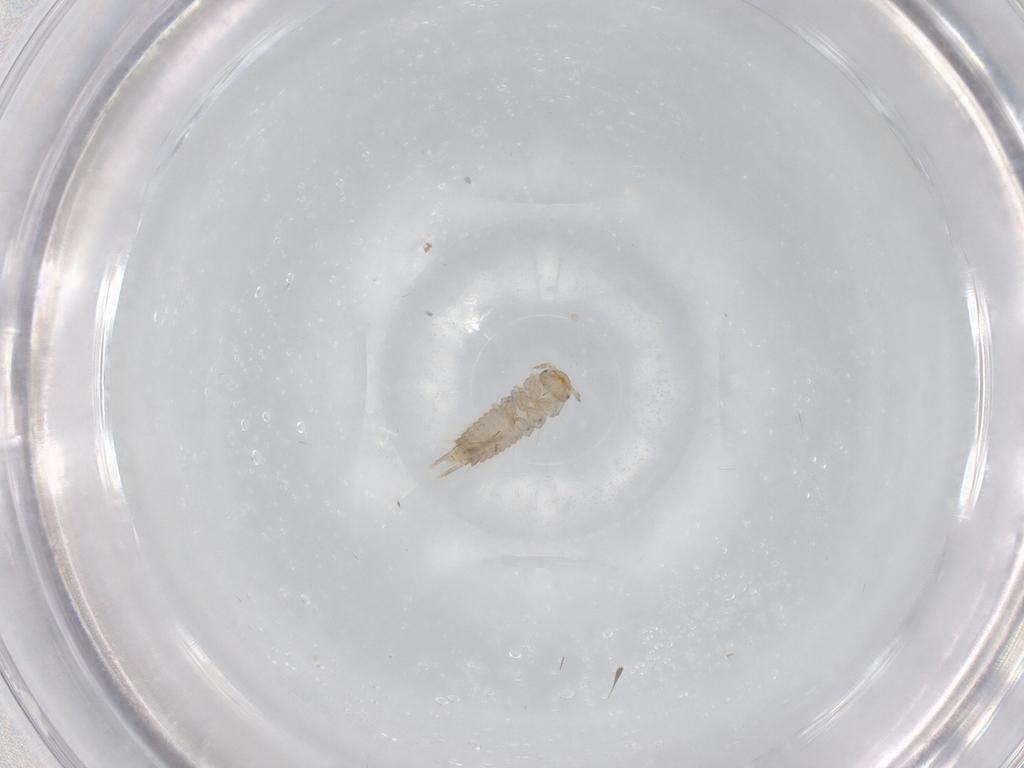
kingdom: Animalia
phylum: Arthropoda
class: Insecta
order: Coleoptera
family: Staphylinidae
